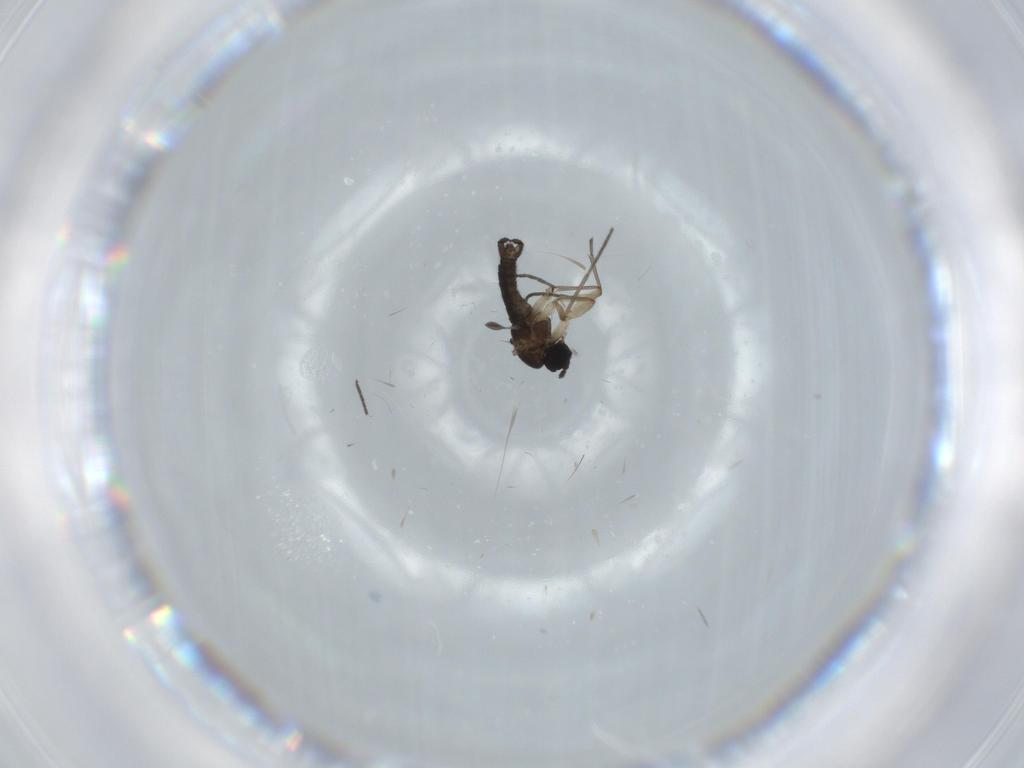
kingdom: Animalia
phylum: Arthropoda
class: Insecta
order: Diptera
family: Sciaridae
